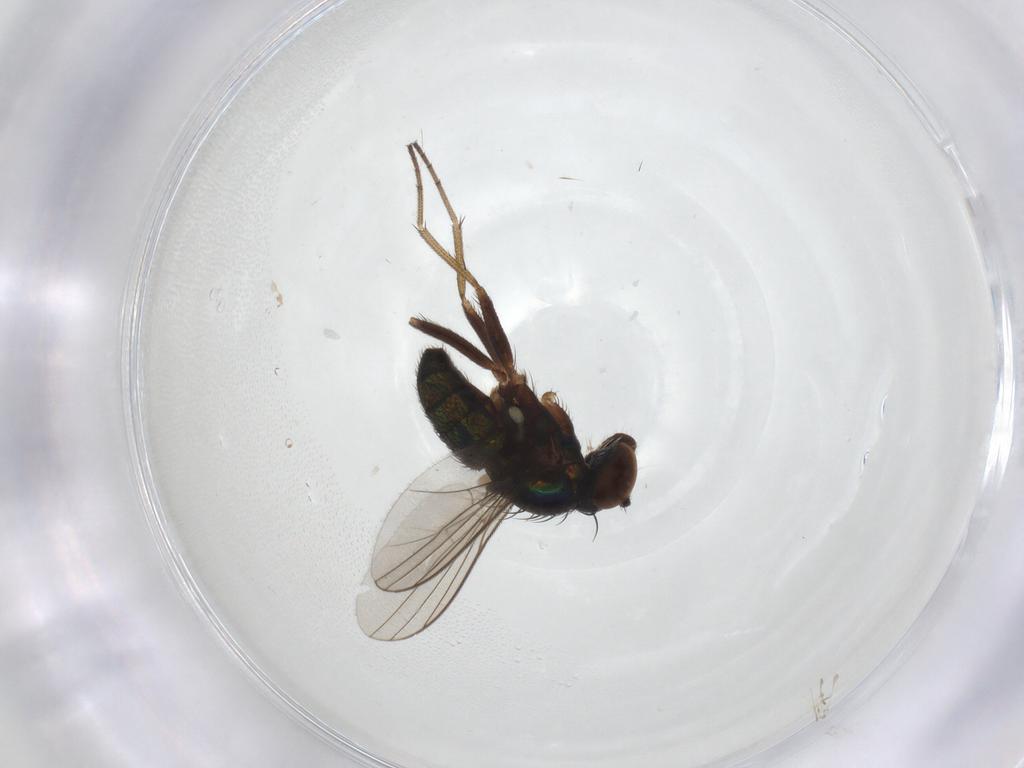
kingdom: Animalia
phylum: Arthropoda
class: Insecta
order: Diptera
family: Dolichopodidae
